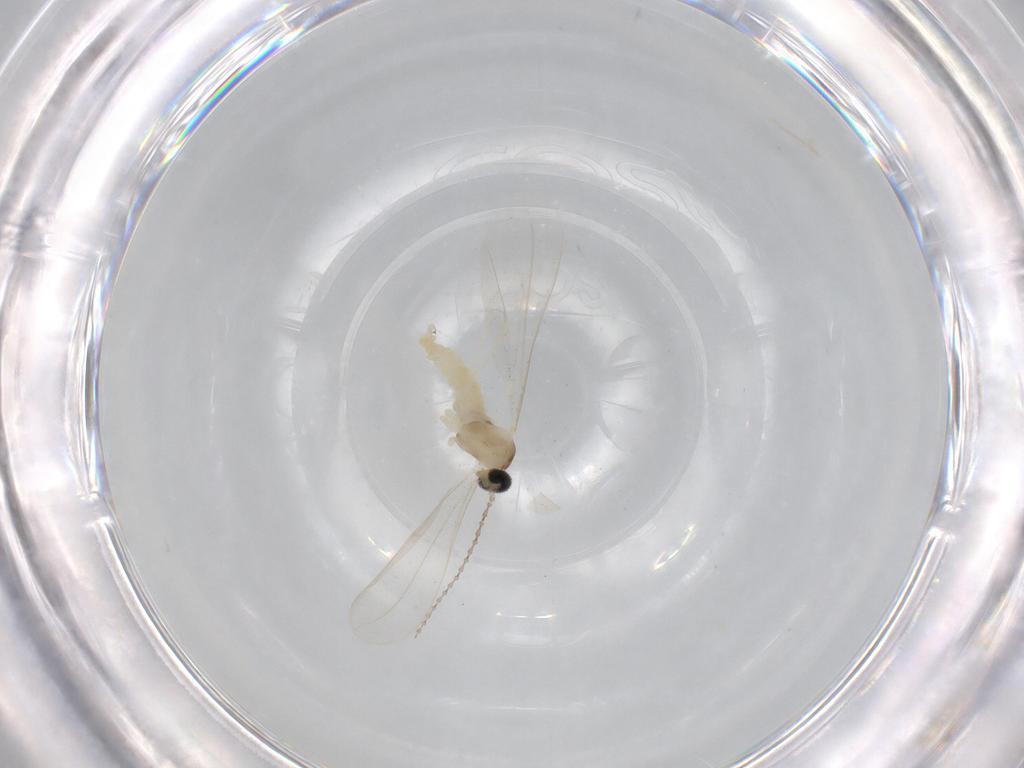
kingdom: Animalia
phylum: Arthropoda
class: Insecta
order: Diptera
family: Cecidomyiidae
